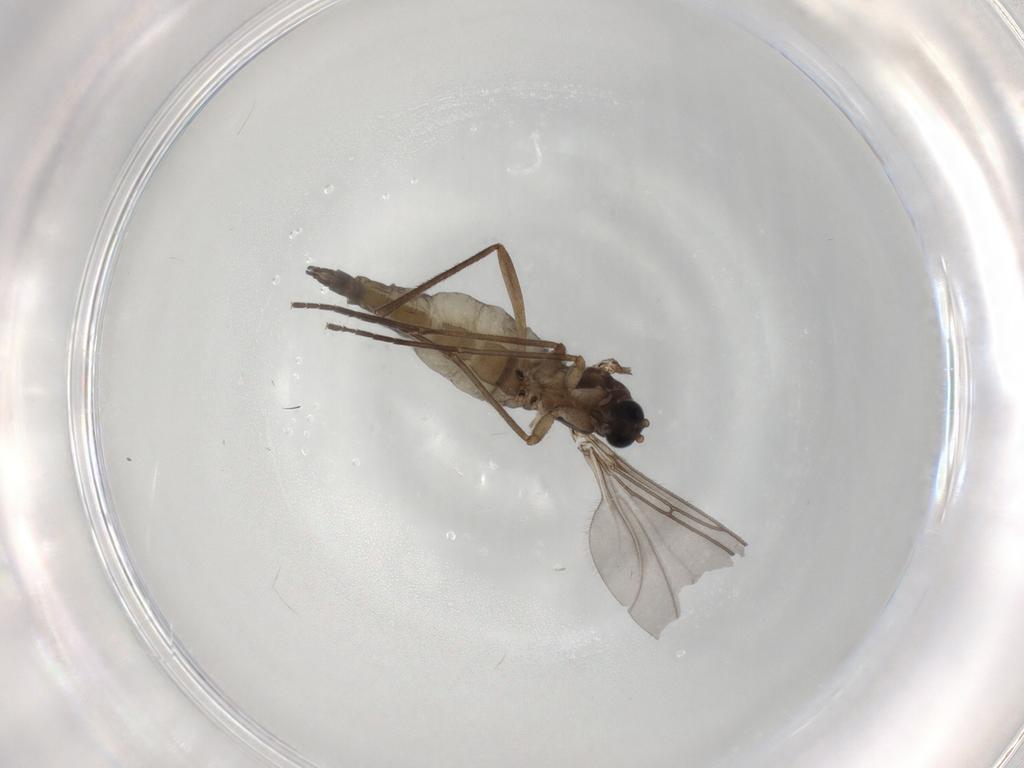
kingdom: Animalia
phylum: Arthropoda
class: Insecta
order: Diptera
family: Sciaridae
